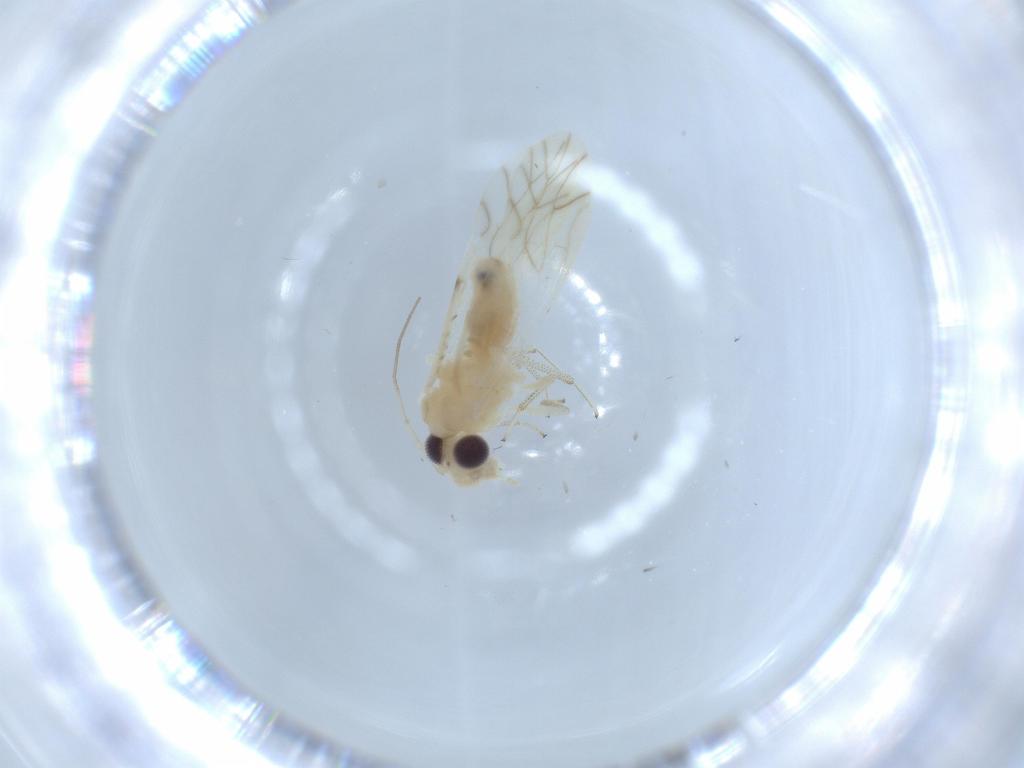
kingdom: Animalia
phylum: Arthropoda
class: Insecta
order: Psocodea
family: Caeciliusidae
